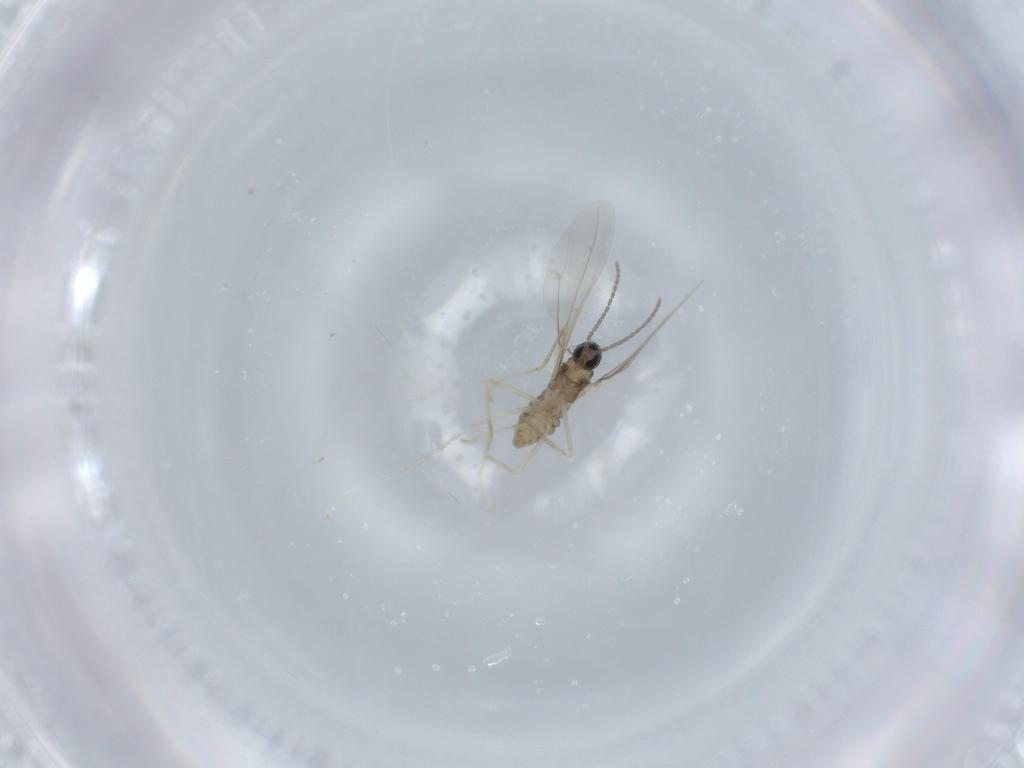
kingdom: Animalia
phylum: Arthropoda
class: Insecta
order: Diptera
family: Cecidomyiidae
